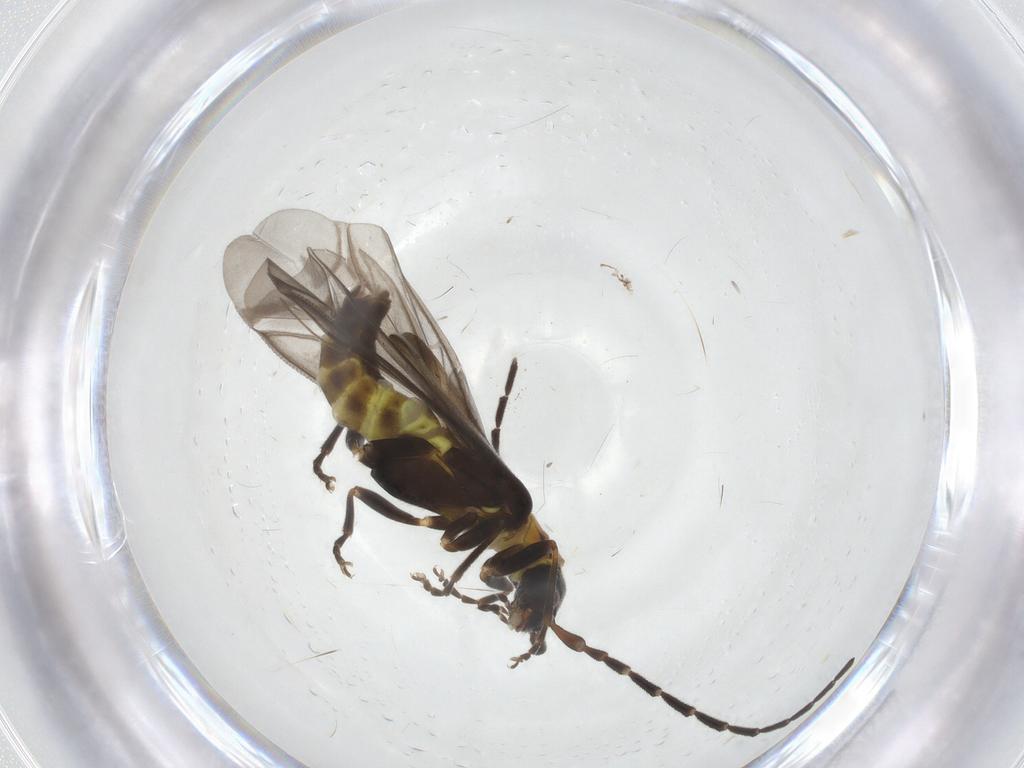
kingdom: Animalia
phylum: Arthropoda
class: Insecta
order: Coleoptera
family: Cantharidae
